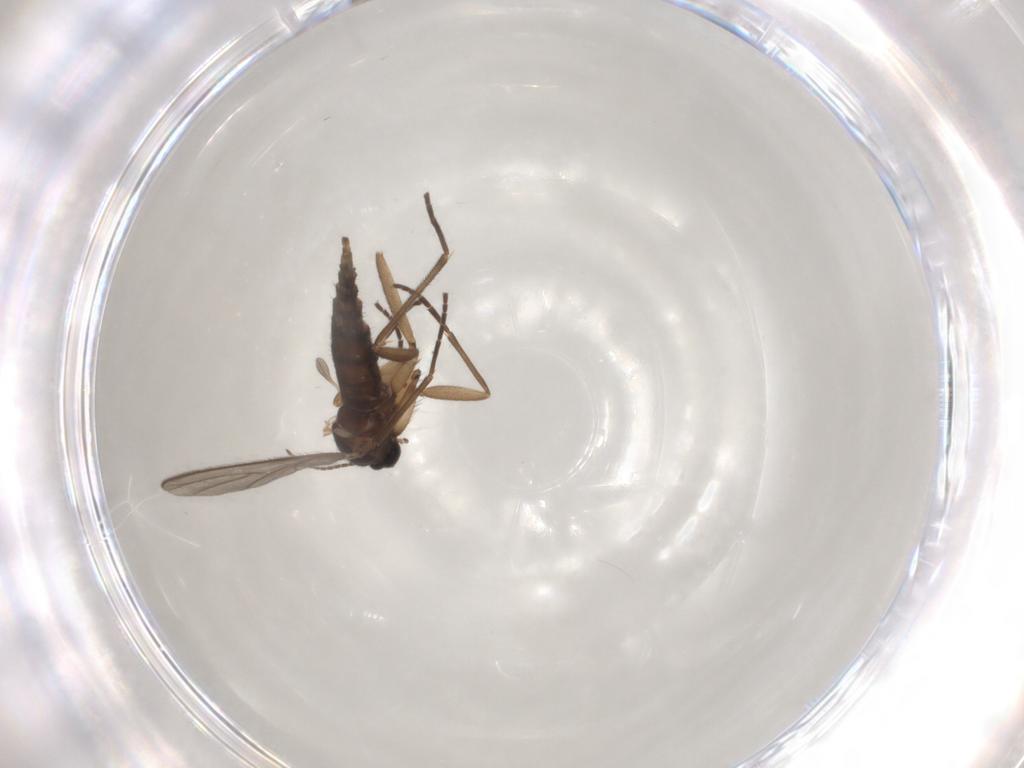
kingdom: Animalia
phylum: Arthropoda
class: Insecta
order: Diptera
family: Sciaridae
